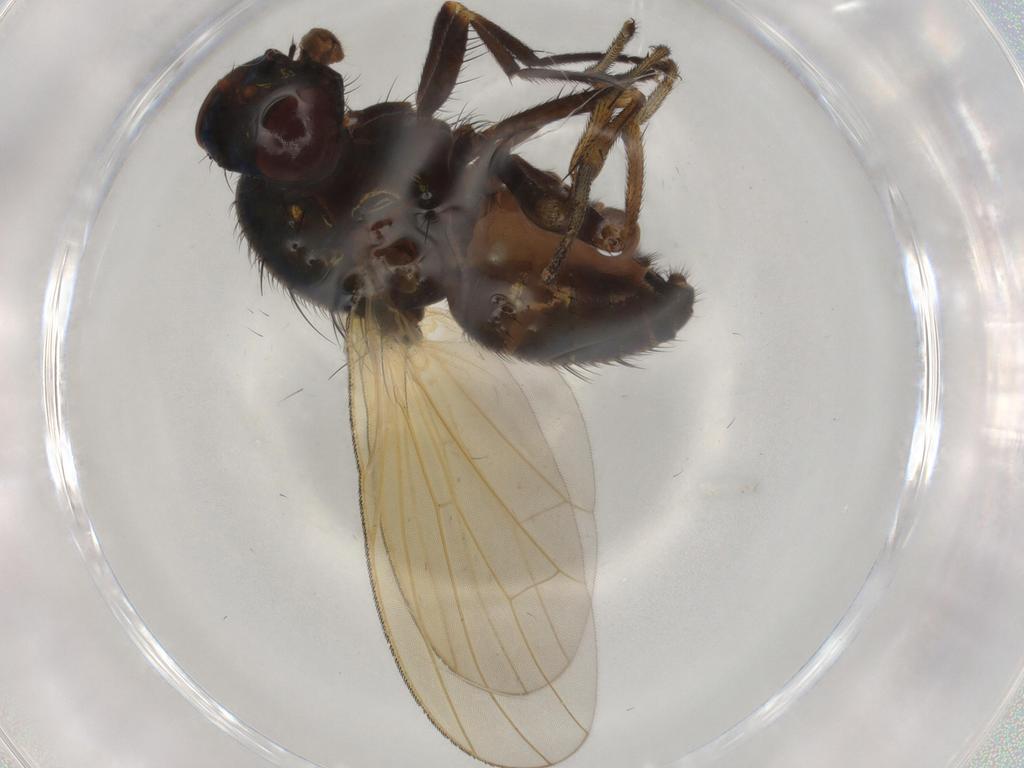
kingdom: Animalia
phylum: Arthropoda
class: Insecta
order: Diptera
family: Lauxaniidae
